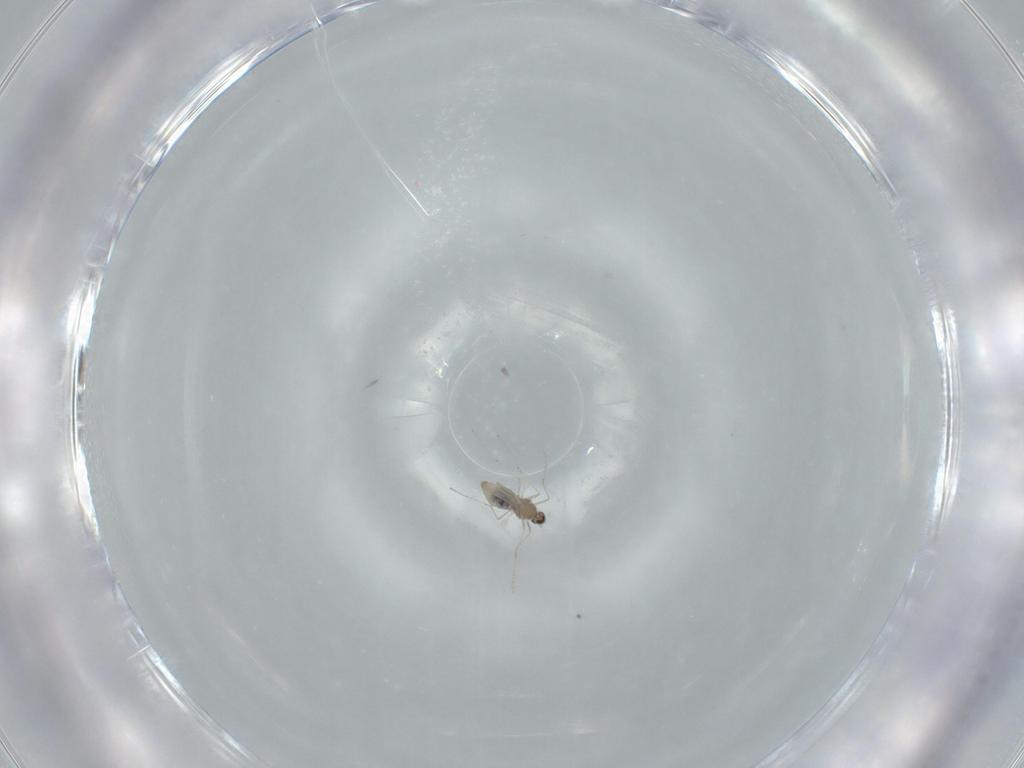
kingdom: Animalia
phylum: Arthropoda
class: Insecta
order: Diptera
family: Cecidomyiidae
